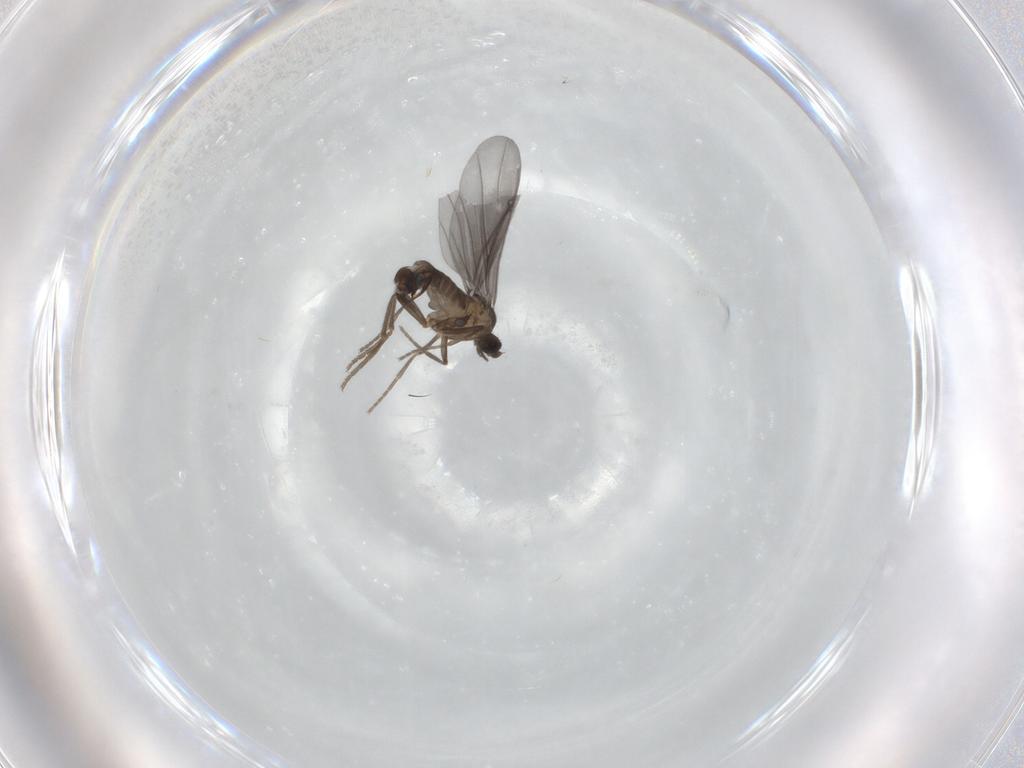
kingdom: Animalia
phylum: Arthropoda
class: Insecta
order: Diptera
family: Phoridae
